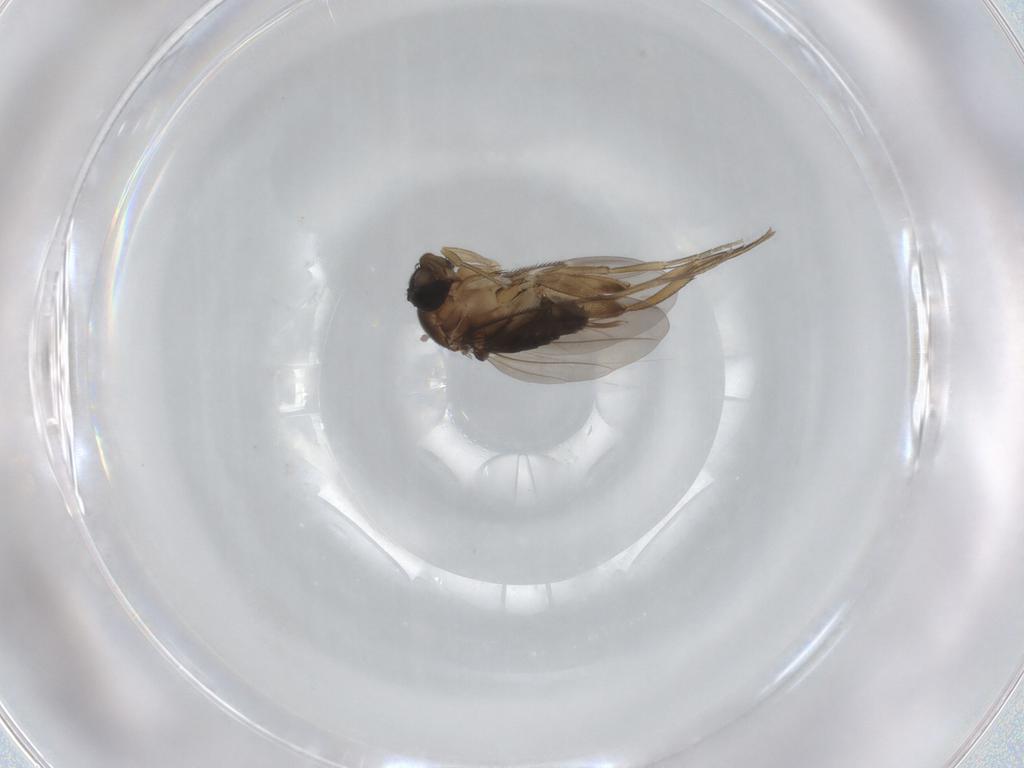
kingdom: Animalia
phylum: Arthropoda
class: Insecta
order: Diptera
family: Phoridae
